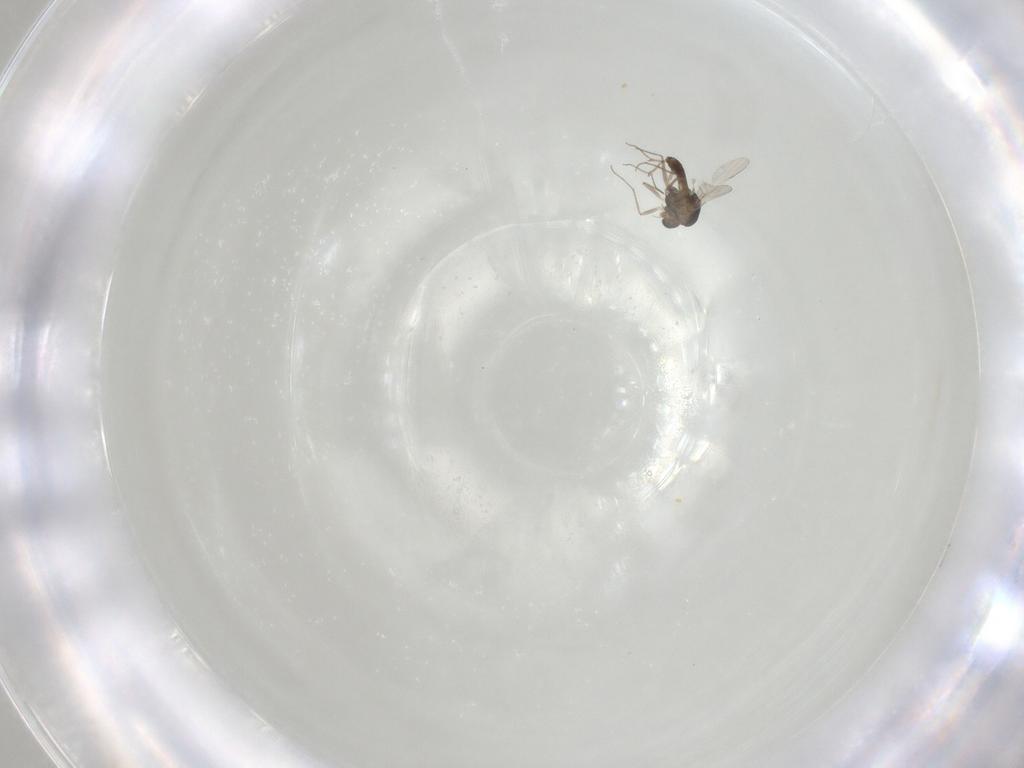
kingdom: Animalia
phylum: Arthropoda
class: Insecta
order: Diptera
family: Chironomidae
